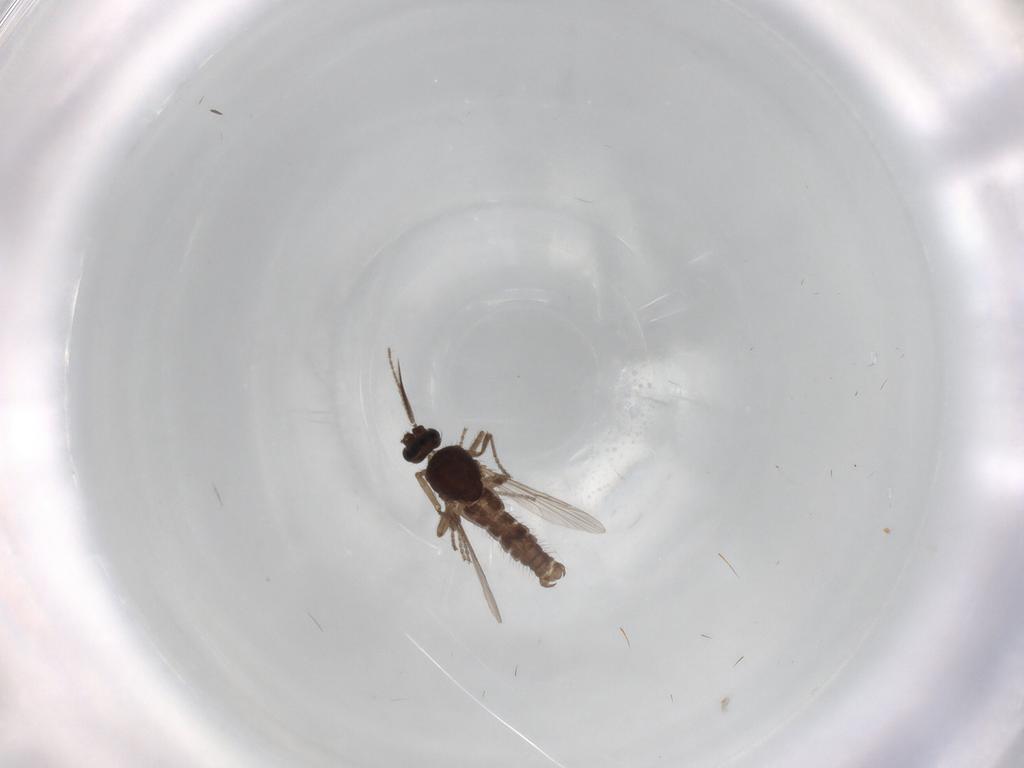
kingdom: Animalia
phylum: Arthropoda
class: Insecta
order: Diptera
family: Ceratopogonidae
